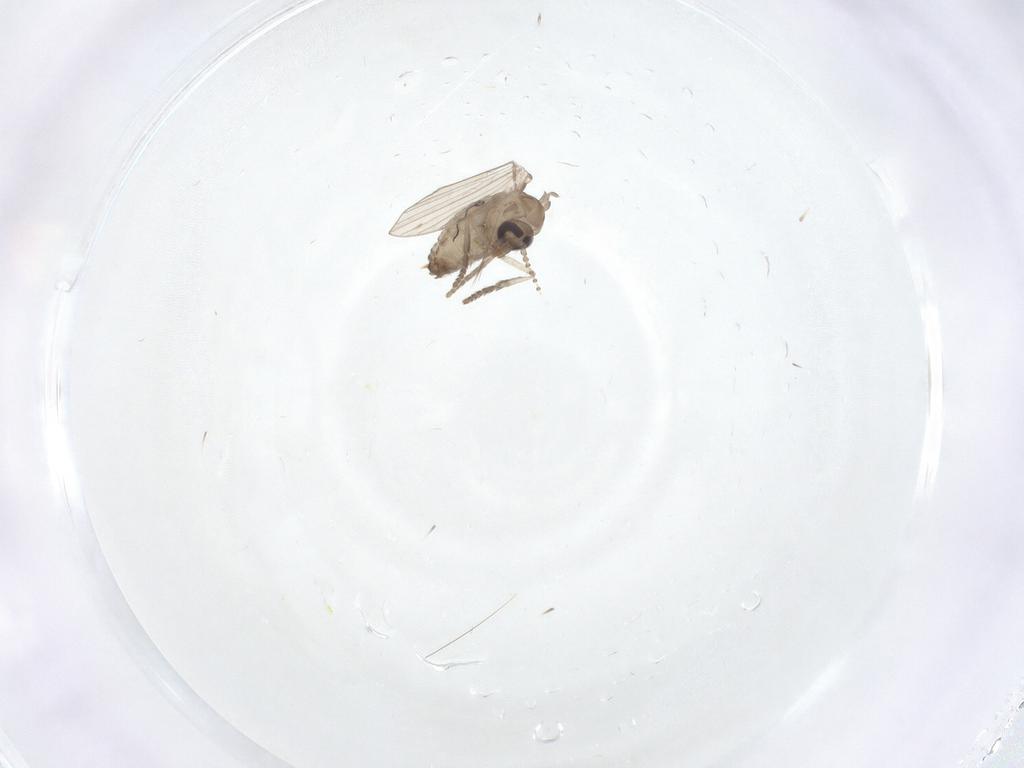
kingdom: Animalia
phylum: Arthropoda
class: Insecta
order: Diptera
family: Psychodidae
